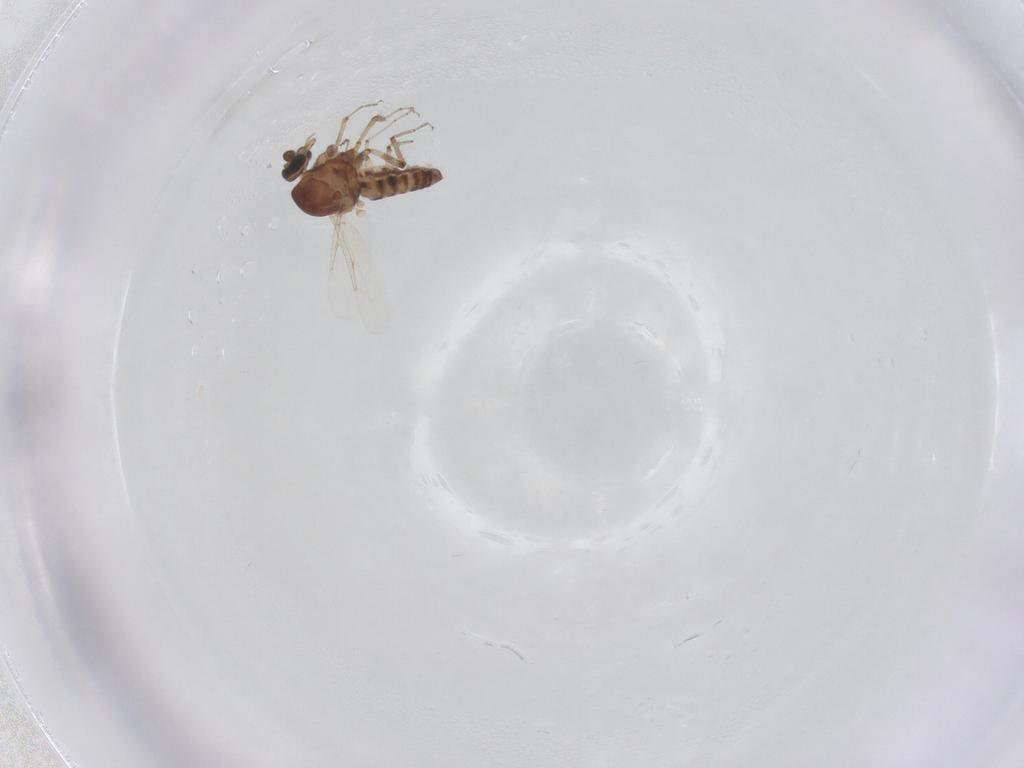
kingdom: Animalia
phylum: Arthropoda
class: Insecta
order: Diptera
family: Ceratopogonidae
